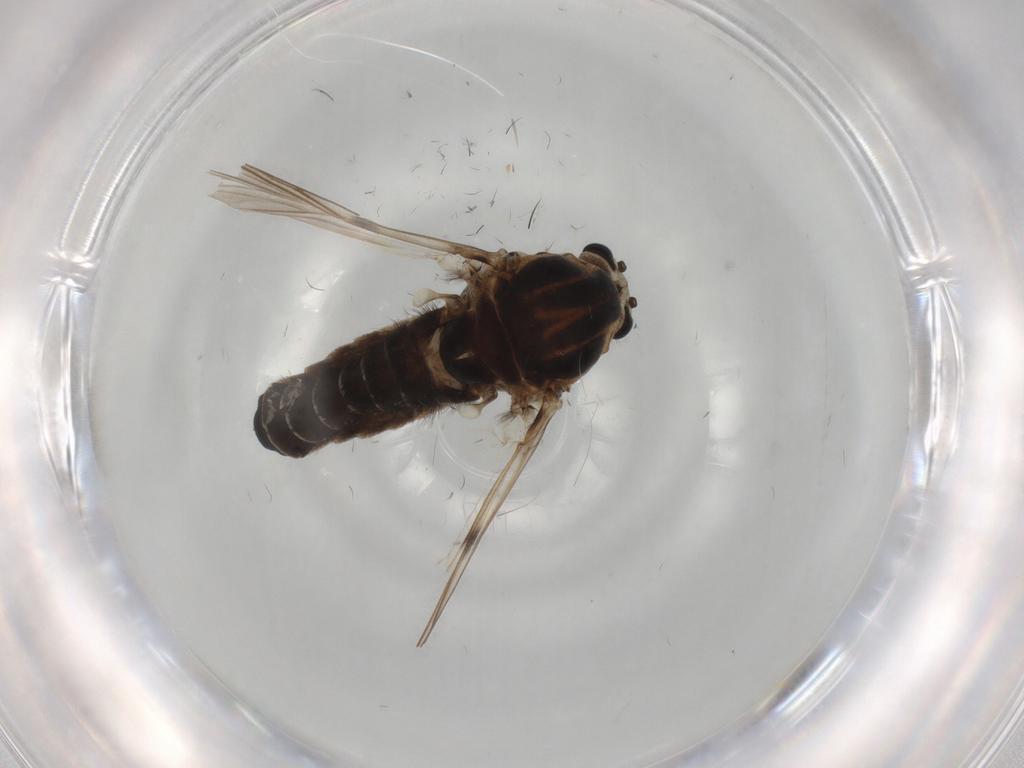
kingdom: Animalia
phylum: Arthropoda
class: Insecta
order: Diptera
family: Chironomidae
